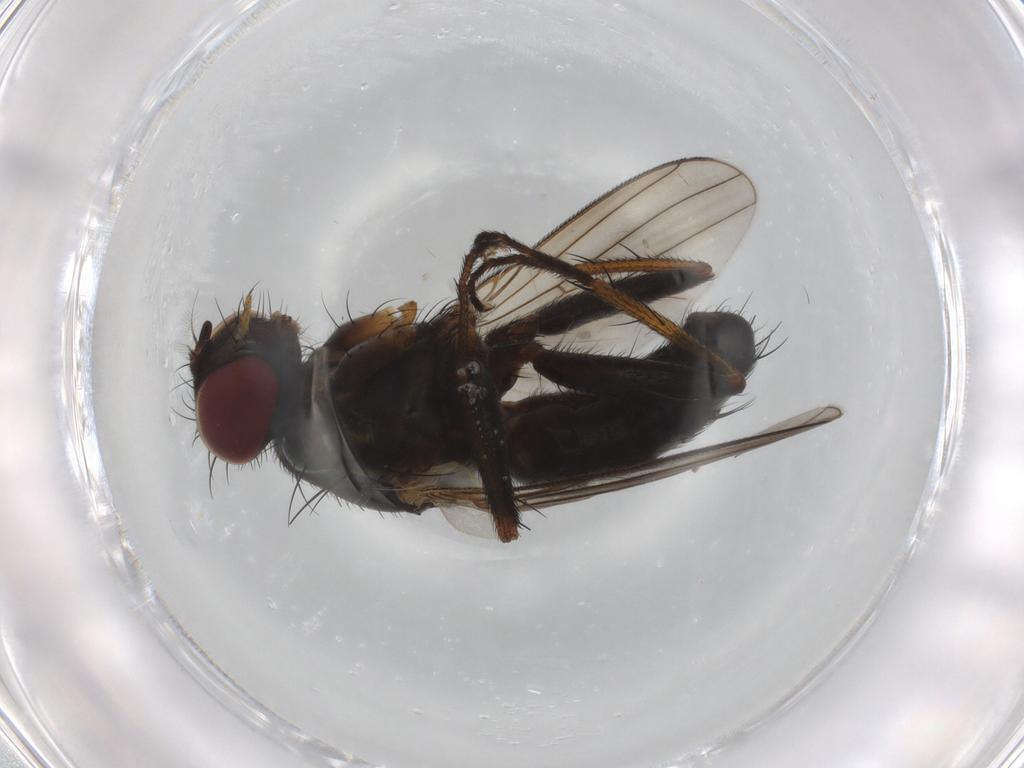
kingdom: Animalia
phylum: Arthropoda
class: Insecta
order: Diptera
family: Muscidae
